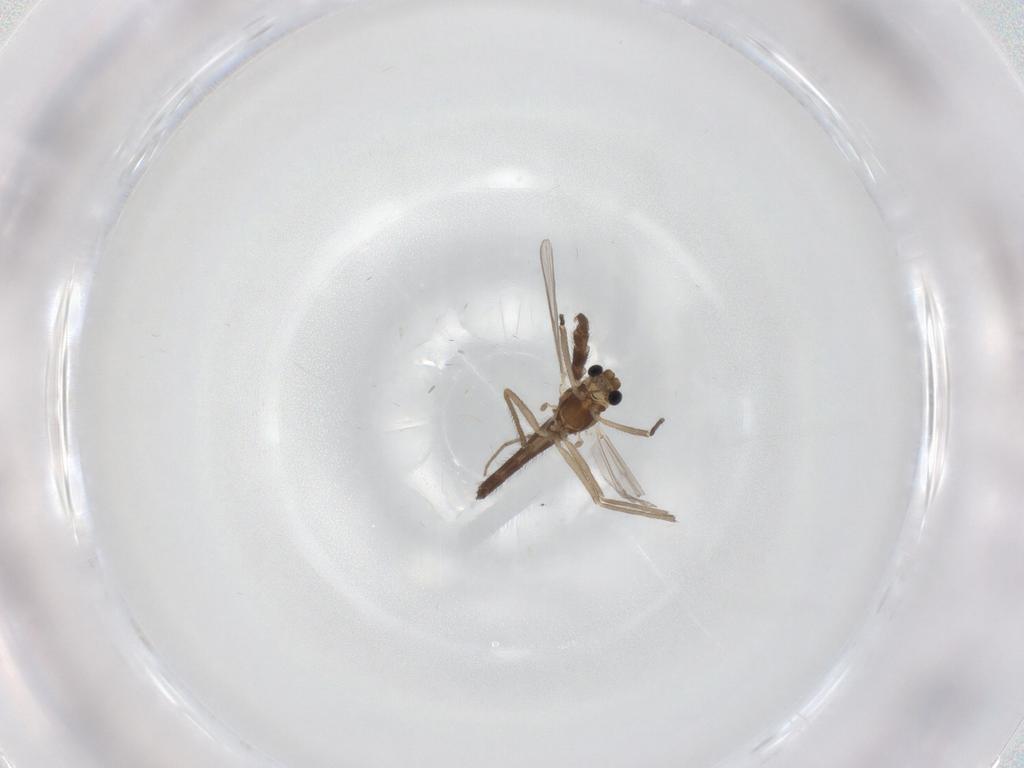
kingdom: Animalia
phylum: Arthropoda
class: Insecta
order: Diptera
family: Chironomidae
